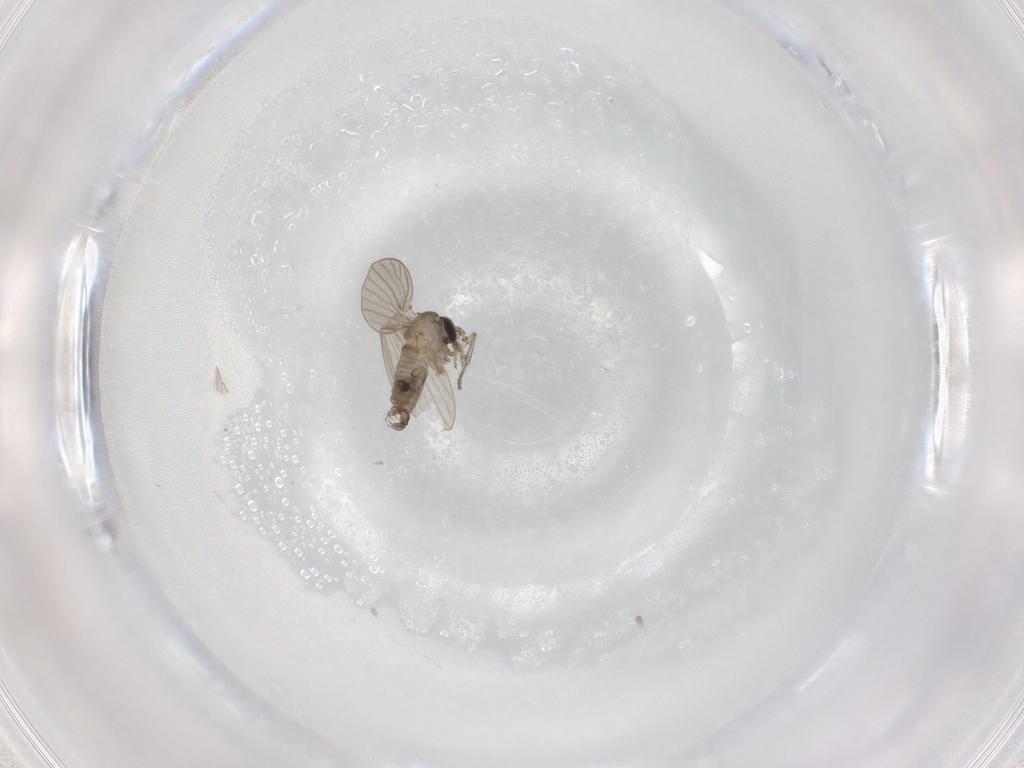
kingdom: Animalia
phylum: Arthropoda
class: Insecta
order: Diptera
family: Psychodidae
